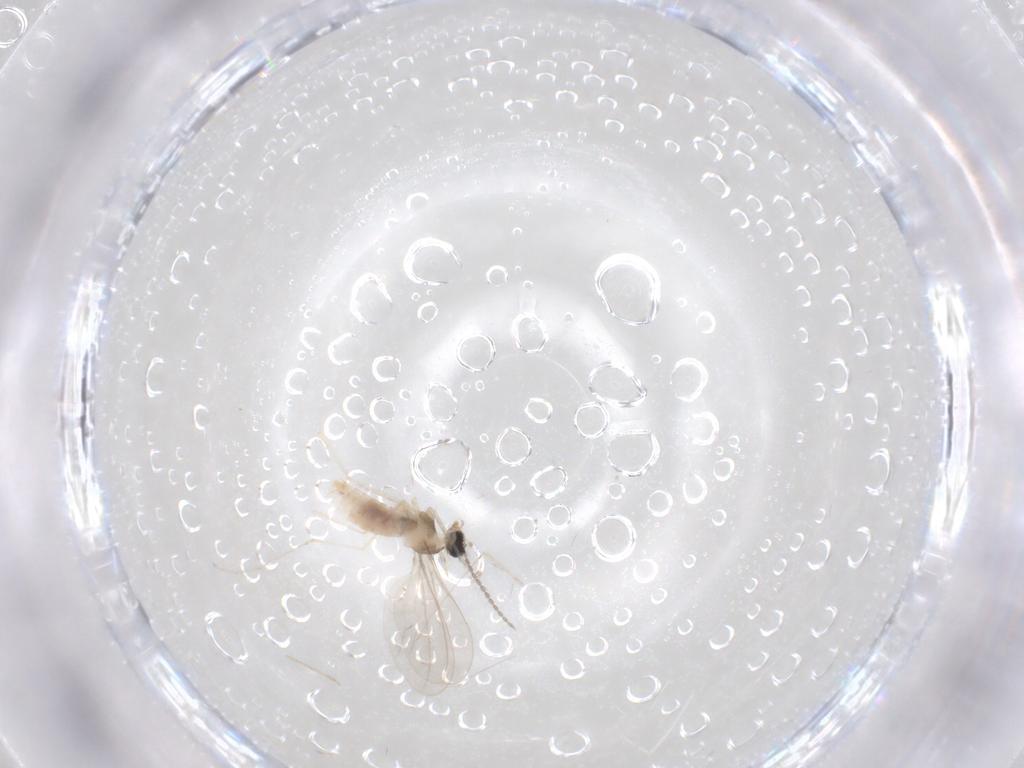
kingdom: Animalia
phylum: Arthropoda
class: Insecta
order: Diptera
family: Cecidomyiidae
